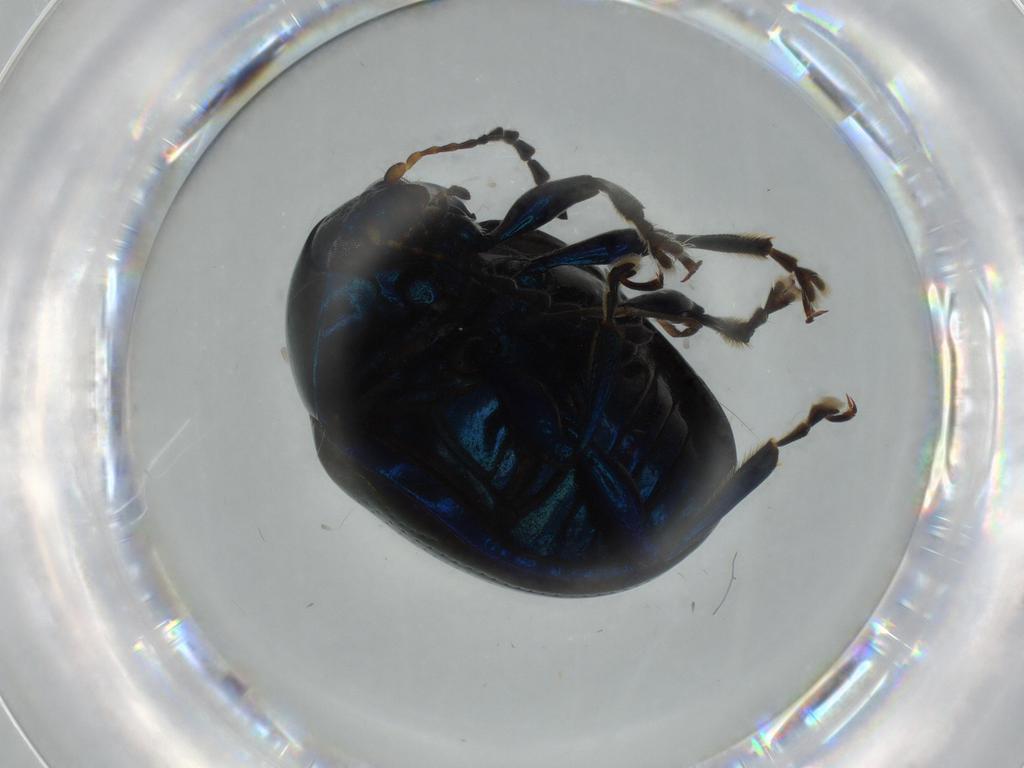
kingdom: Animalia
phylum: Arthropoda
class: Insecta
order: Coleoptera
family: Chrysomelidae
